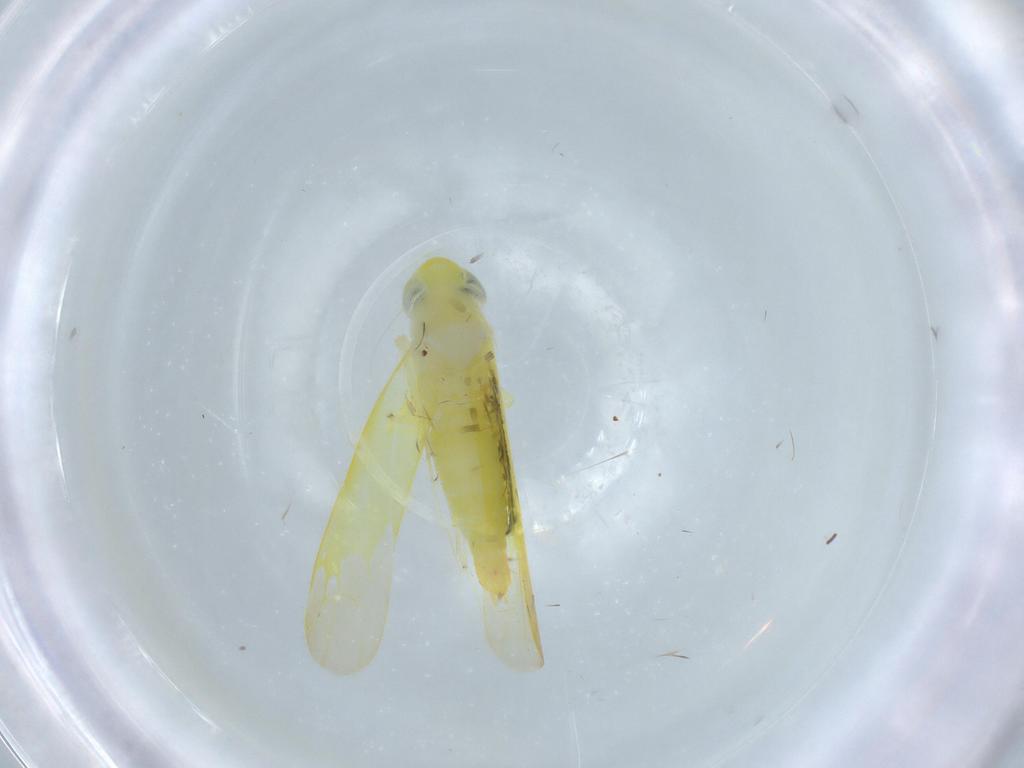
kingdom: Animalia
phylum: Arthropoda
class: Insecta
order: Hemiptera
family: Cicadellidae
